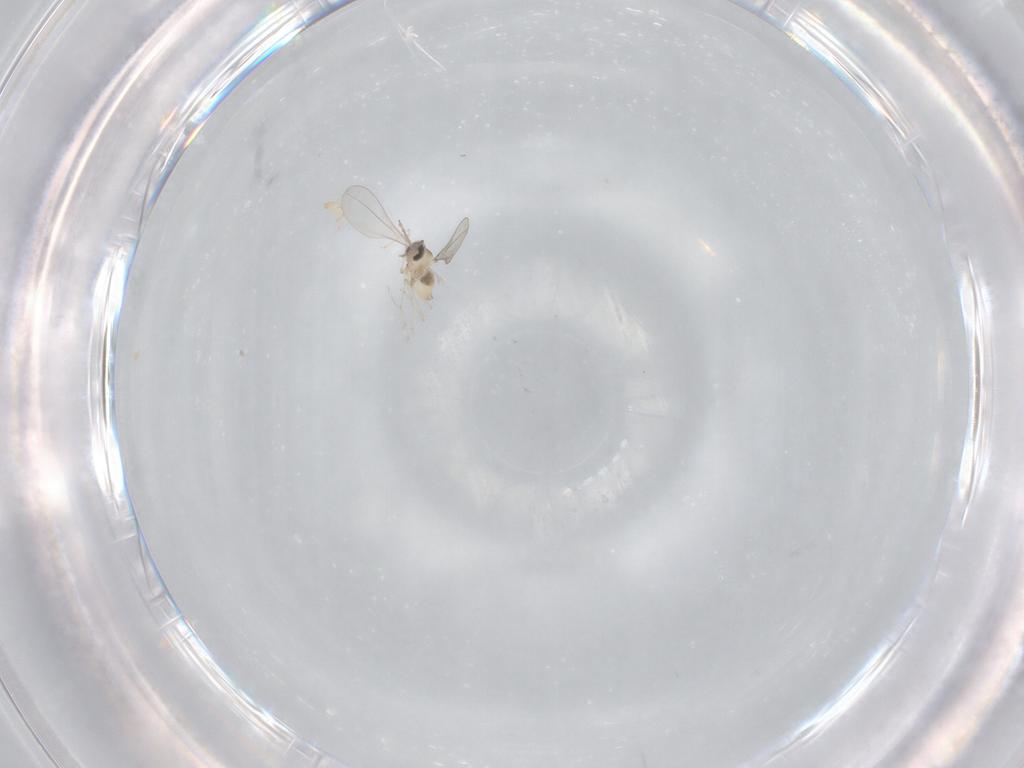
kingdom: Animalia
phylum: Arthropoda
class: Insecta
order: Diptera
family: Cecidomyiidae
